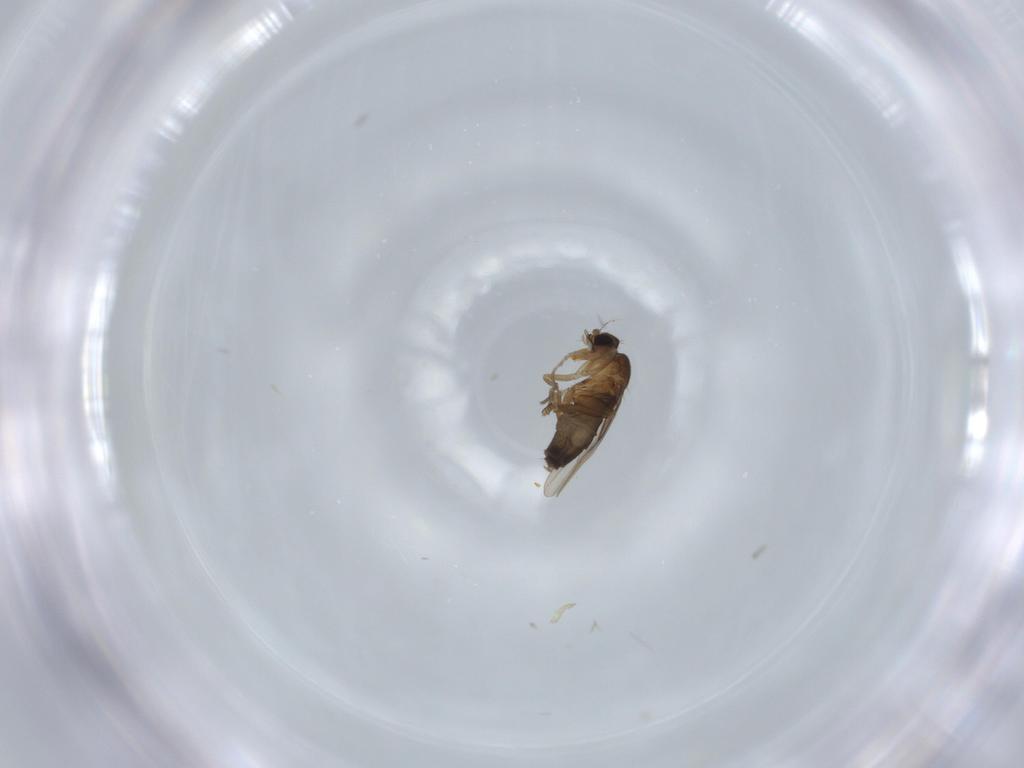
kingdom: Animalia
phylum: Arthropoda
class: Insecta
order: Diptera
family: Phoridae
